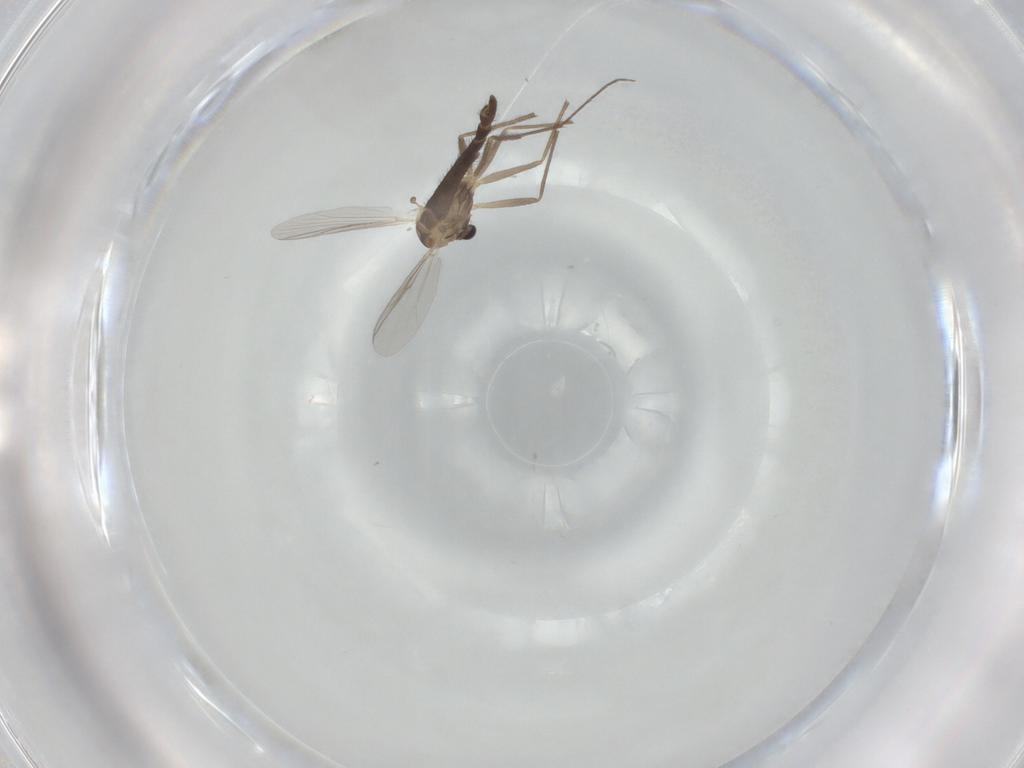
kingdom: Animalia
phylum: Arthropoda
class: Insecta
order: Diptera
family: Chironomidae
